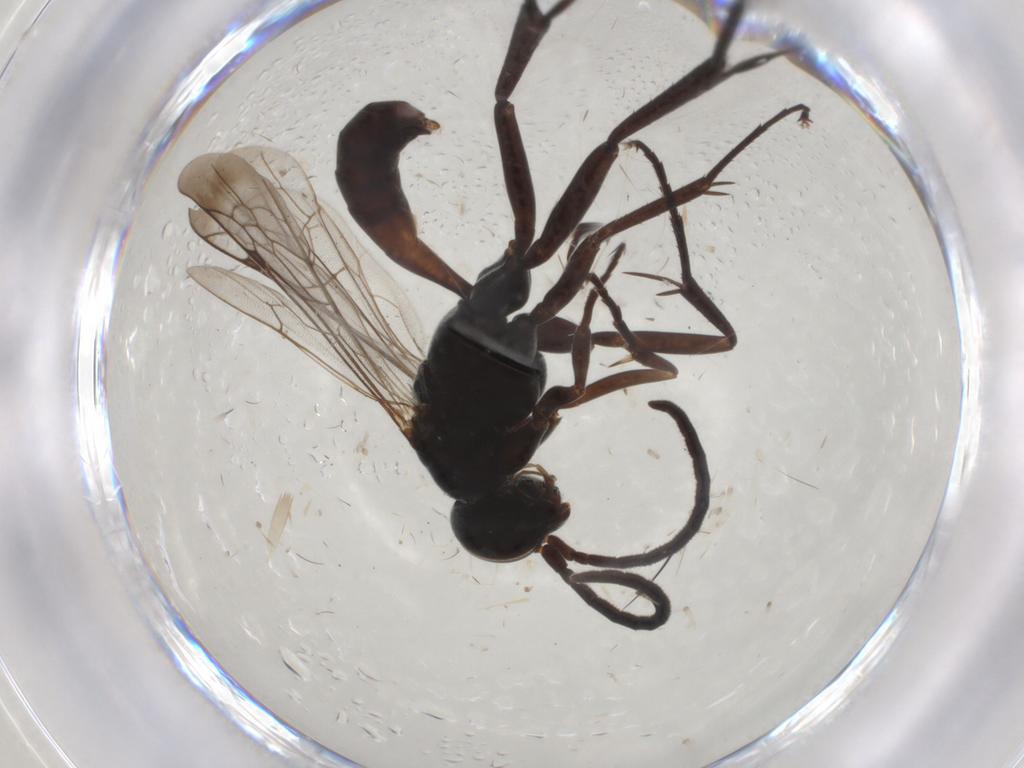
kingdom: Animalia
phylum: Arthropoda
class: Insecta
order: Hymenoptera
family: Pompilidae
